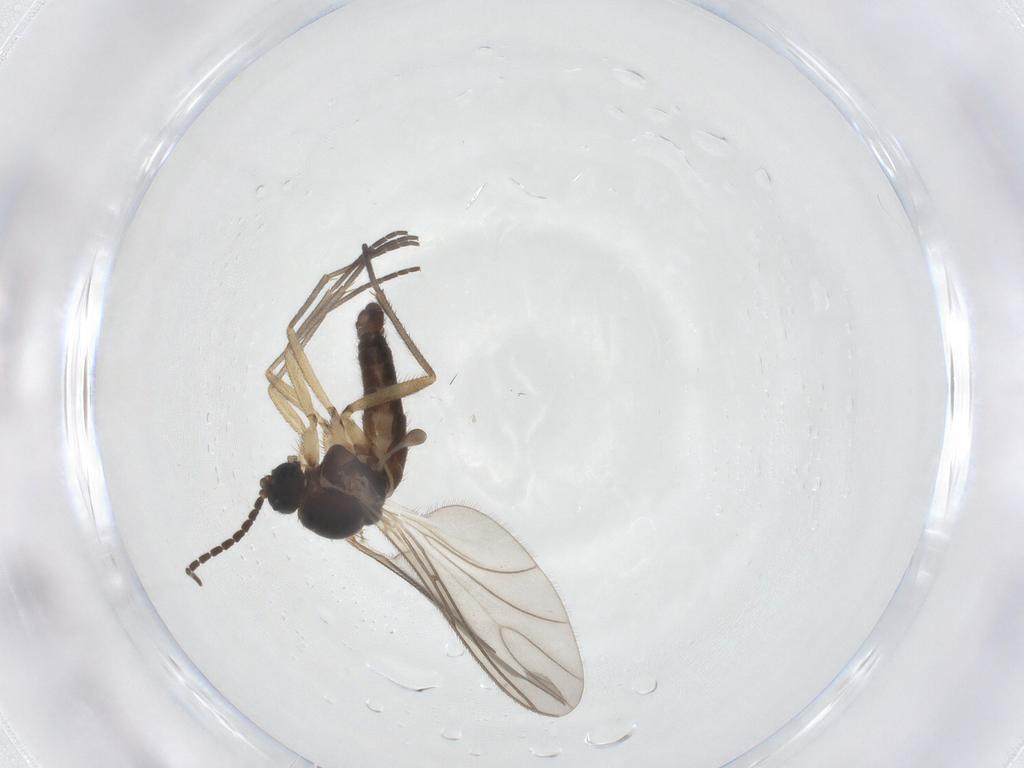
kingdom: Animalia
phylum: Arthropoda
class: Insecta
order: Diptera
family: Sciaridae
